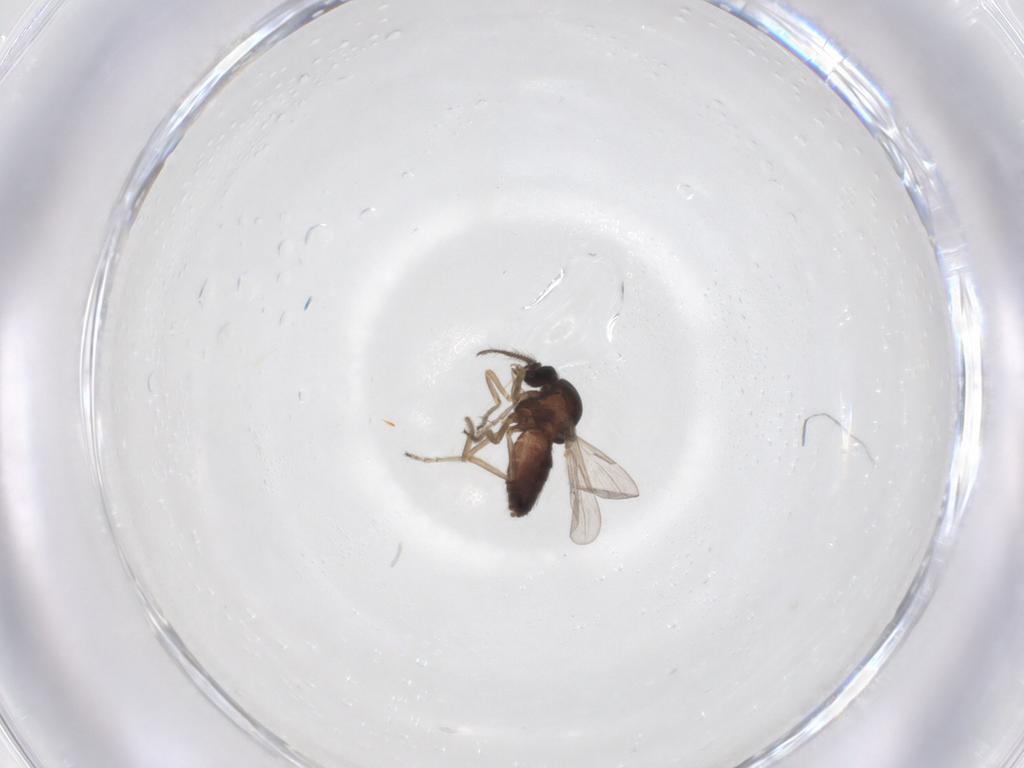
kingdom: Animalia
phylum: Arthropoda
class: Insecta
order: Diptera
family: Ceratopogonidae
